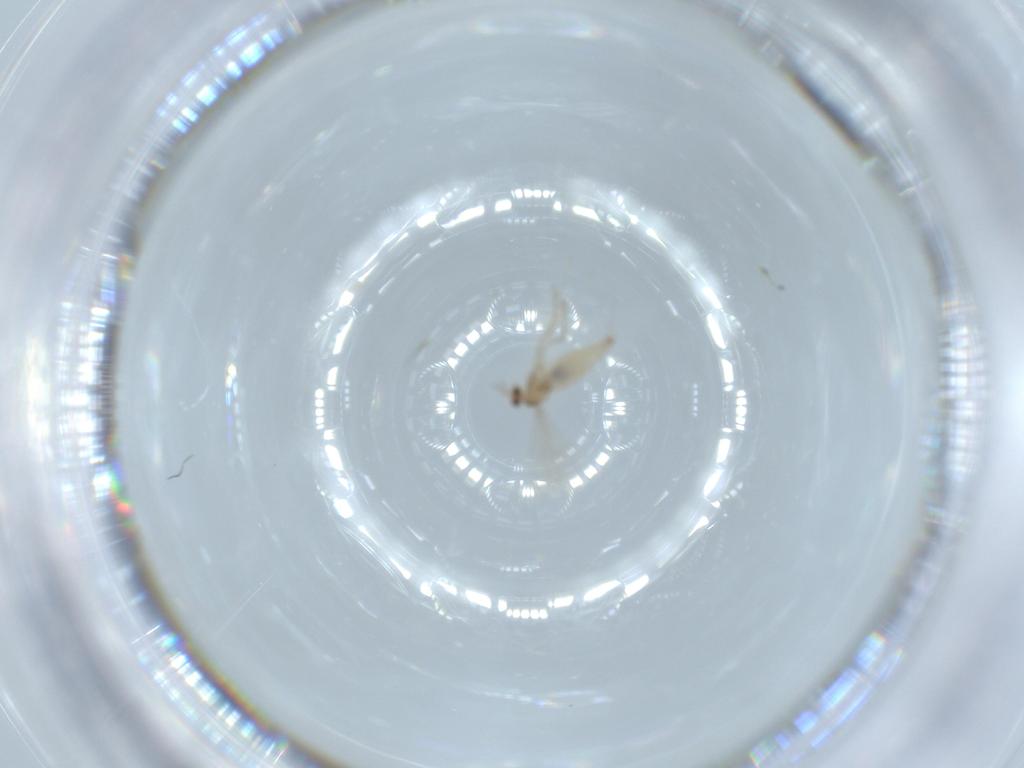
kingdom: Animalia
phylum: Arthropoda
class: Insecta
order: Diptera
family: Cecidomyiidae
